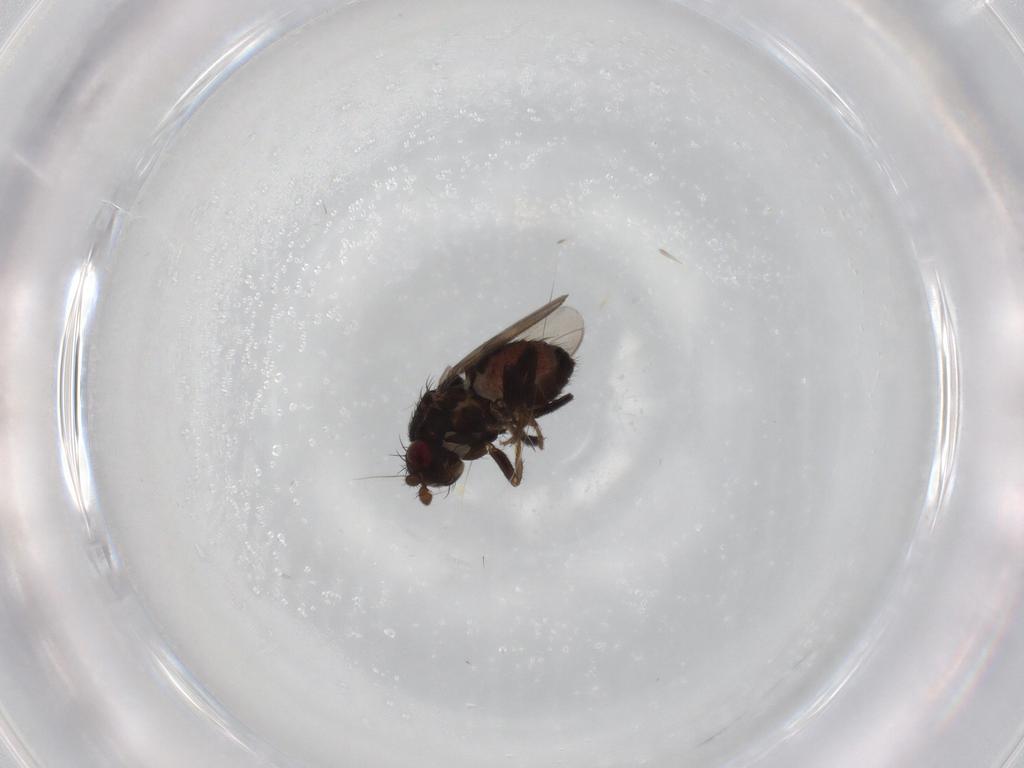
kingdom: Animalia
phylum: Arthropoda
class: Insecta
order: Diptera
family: Sphaeroceridae
